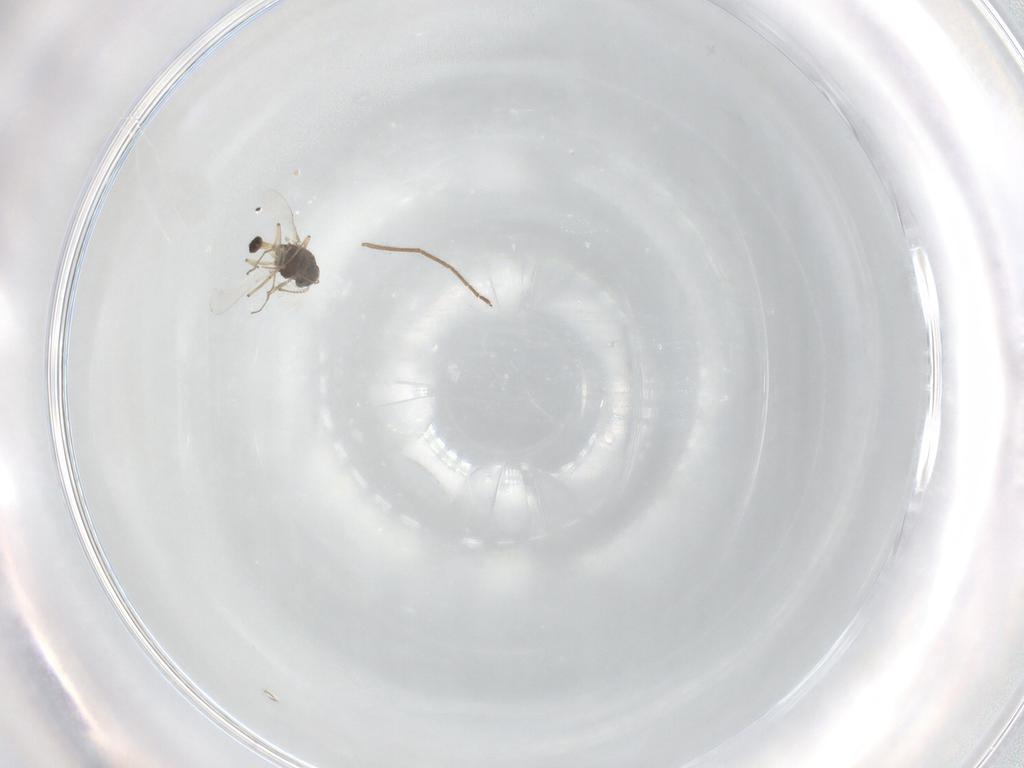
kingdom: Animalia
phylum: Arthropoda
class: Insecta
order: Diptera
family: Chironomidae
